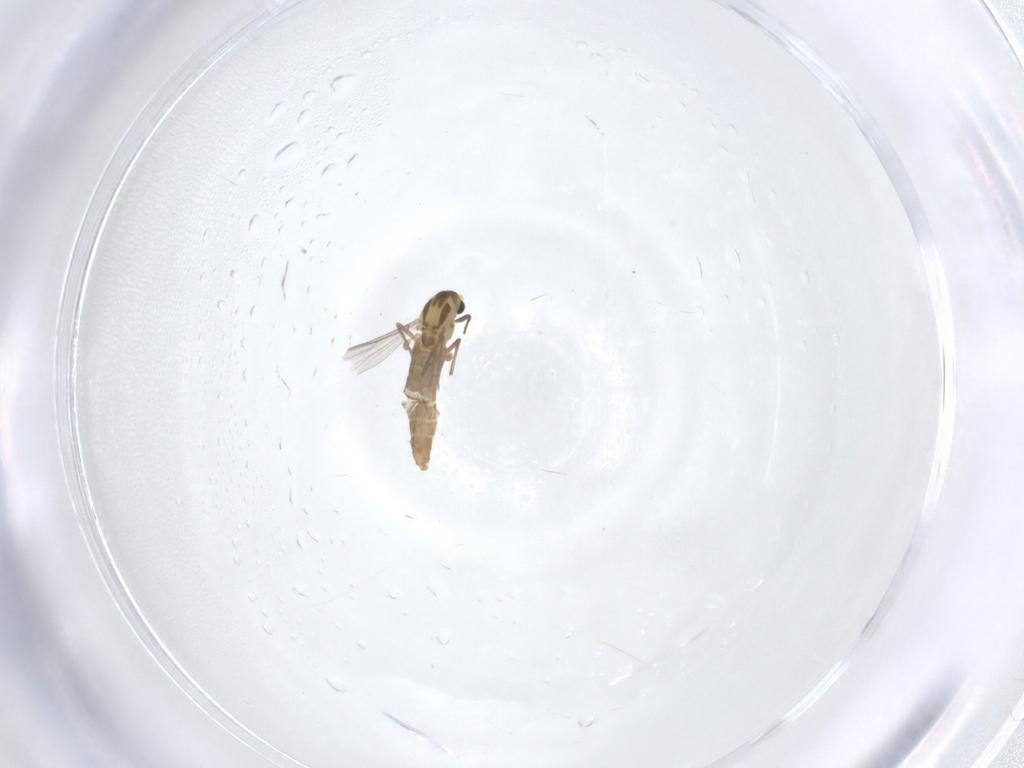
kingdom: Animalia
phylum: Arthropoda
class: Insecta
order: Diptera
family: Chironomidae
